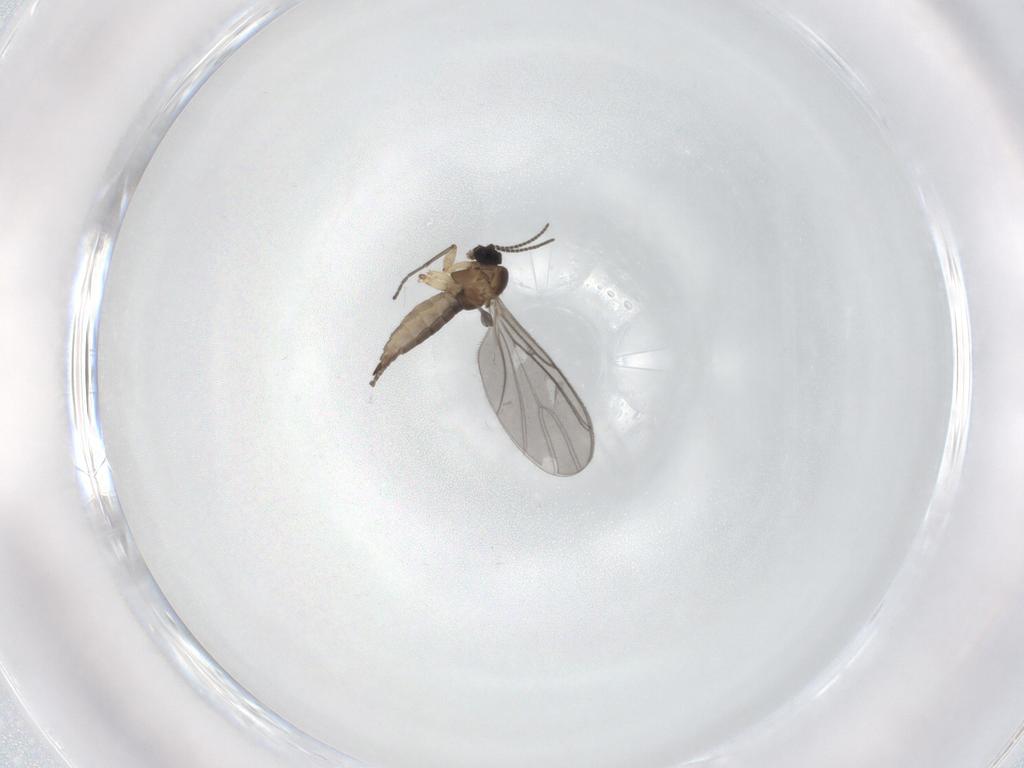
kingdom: Animalia
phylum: Arthropoda
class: Insecta
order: Diptera
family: Sciaridae
